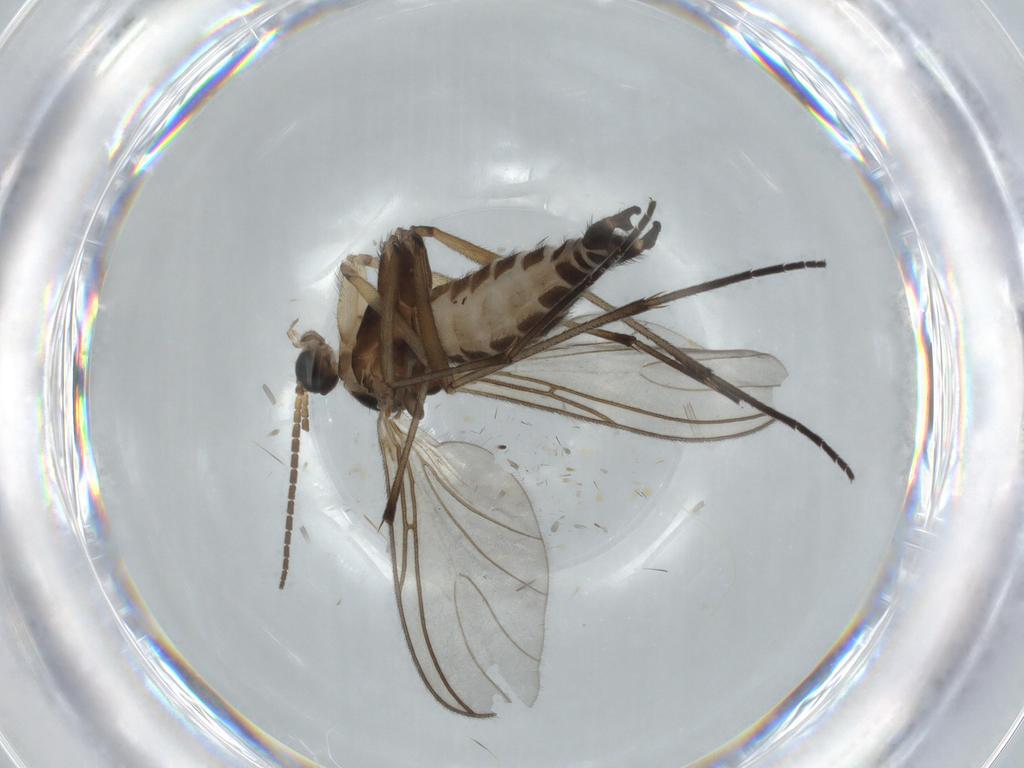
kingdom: Animalia
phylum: Arthropoda
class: Insecta
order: Diptera
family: Sciaridae
